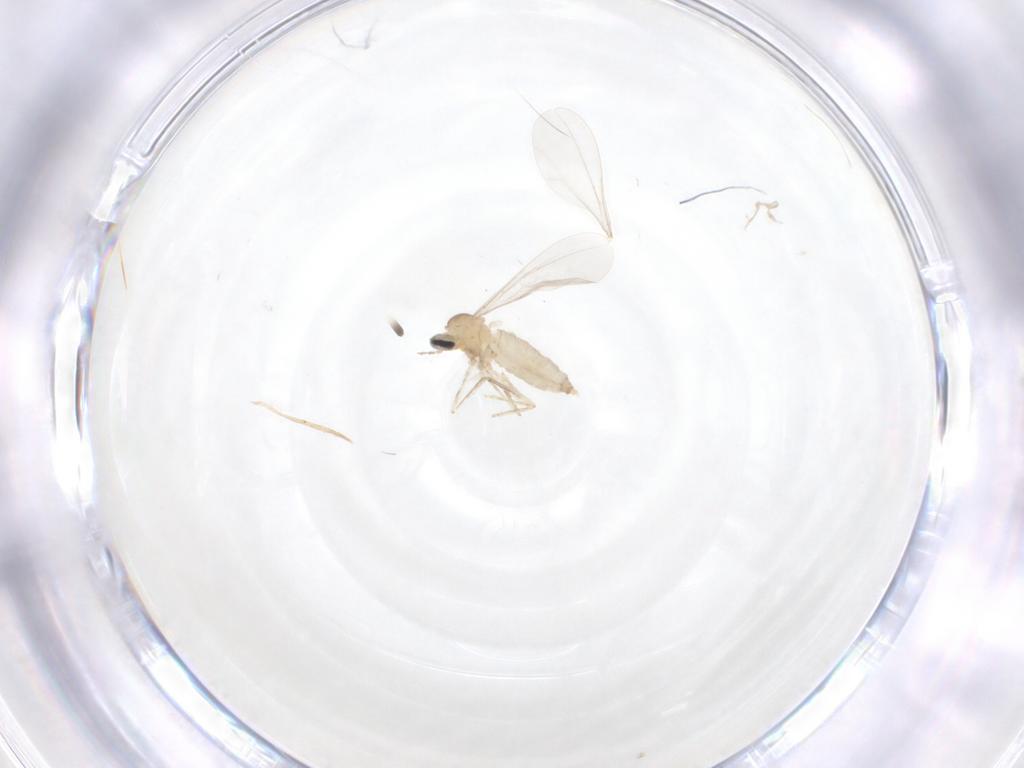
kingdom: Animalia
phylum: Arthropoda
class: Insecta
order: Diptera
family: Cecidomyiidae
